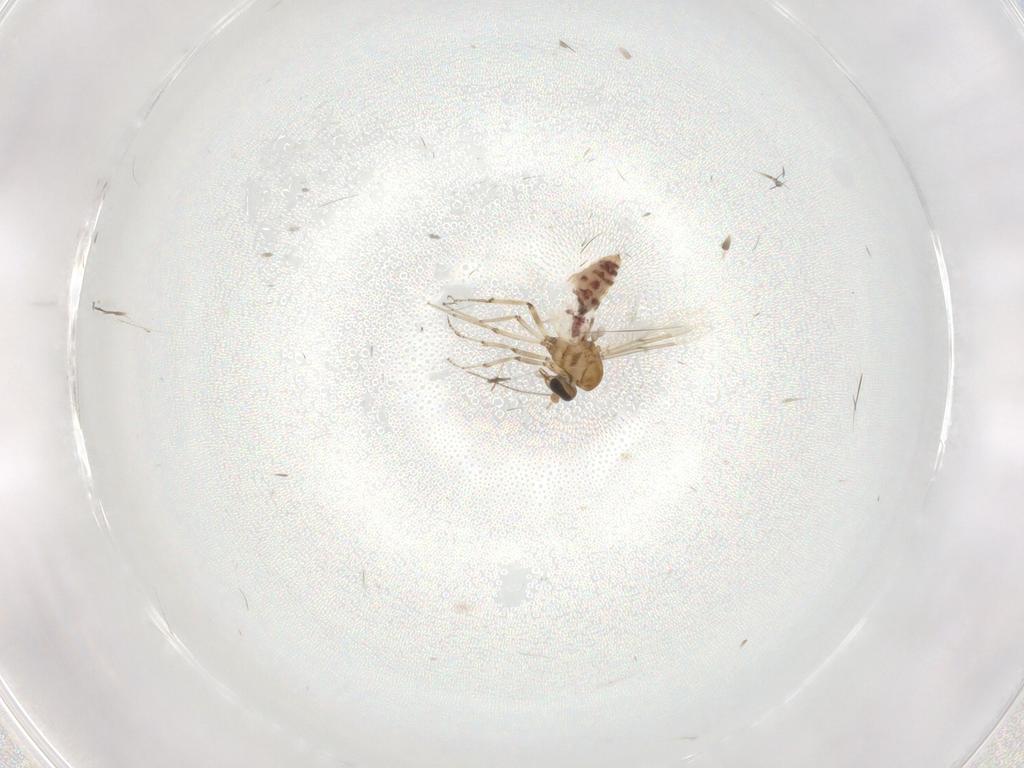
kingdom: Animalia
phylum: Arthropoda
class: Insecta
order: Diptera
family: Ceratopogonidae
